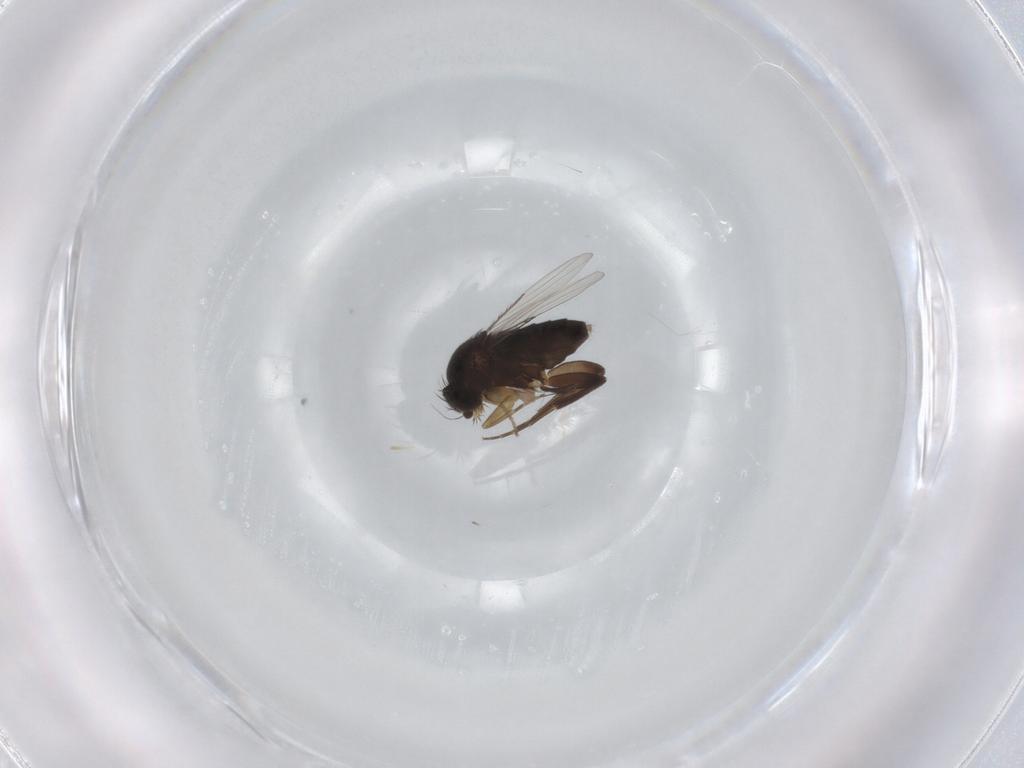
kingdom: Animalia
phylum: Arthropoda
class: Insecta
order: Diptera
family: Phoridae
